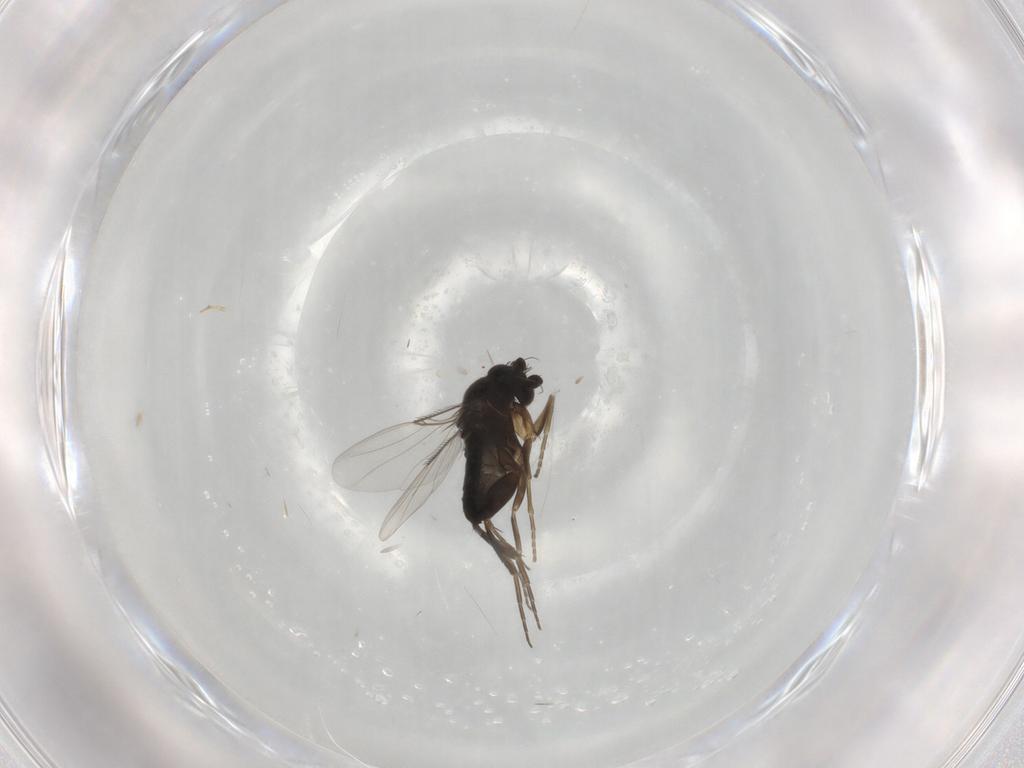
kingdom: Animalia
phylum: Arthropoda
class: Insecta
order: Diptera
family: Phoridae
